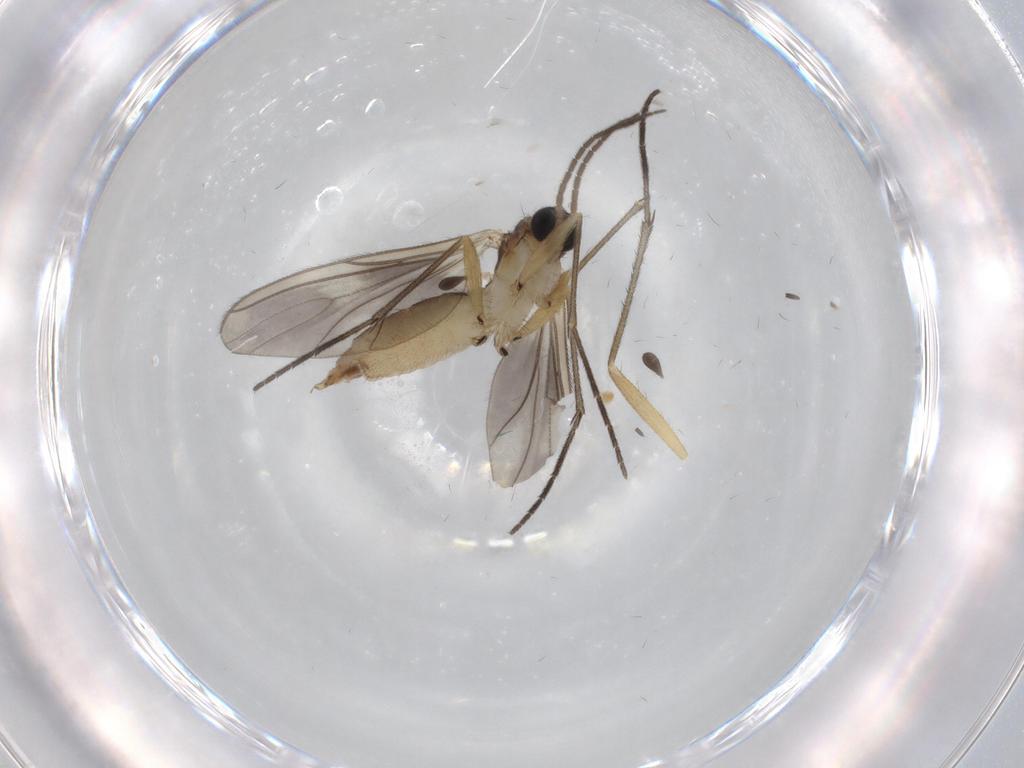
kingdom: Animalia
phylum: Arthropoda
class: Insecta
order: Diptera
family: Sciaridae
